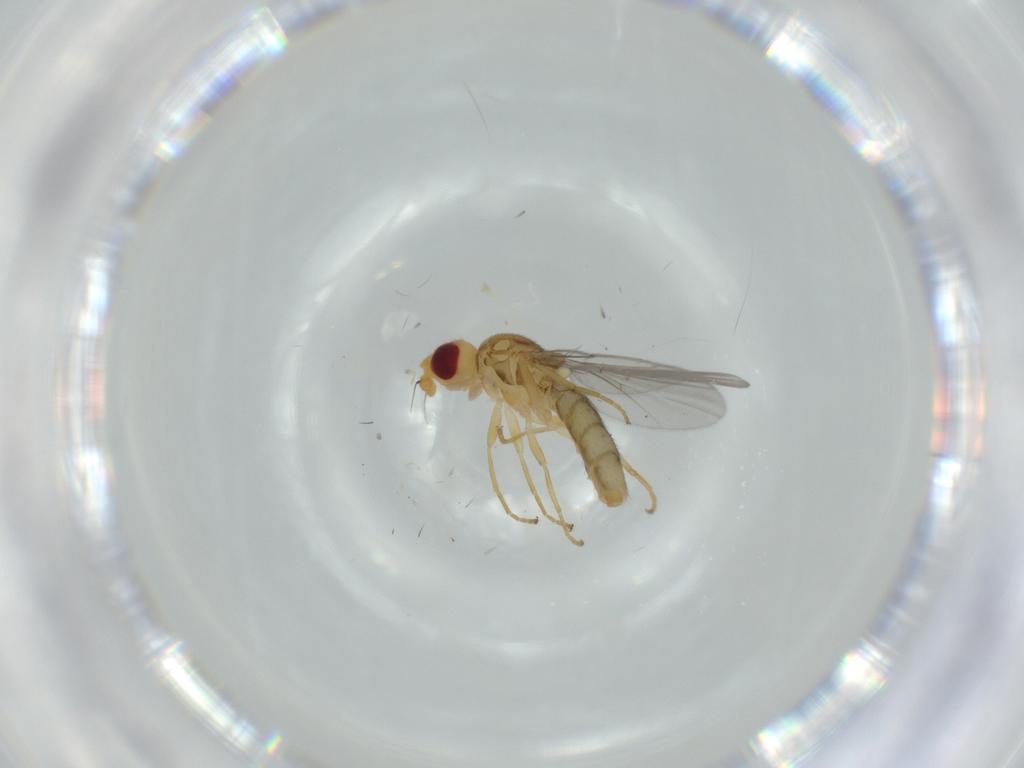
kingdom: Animalia
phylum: Arthropoda
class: Insecta
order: Diptera
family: Chloropidae
